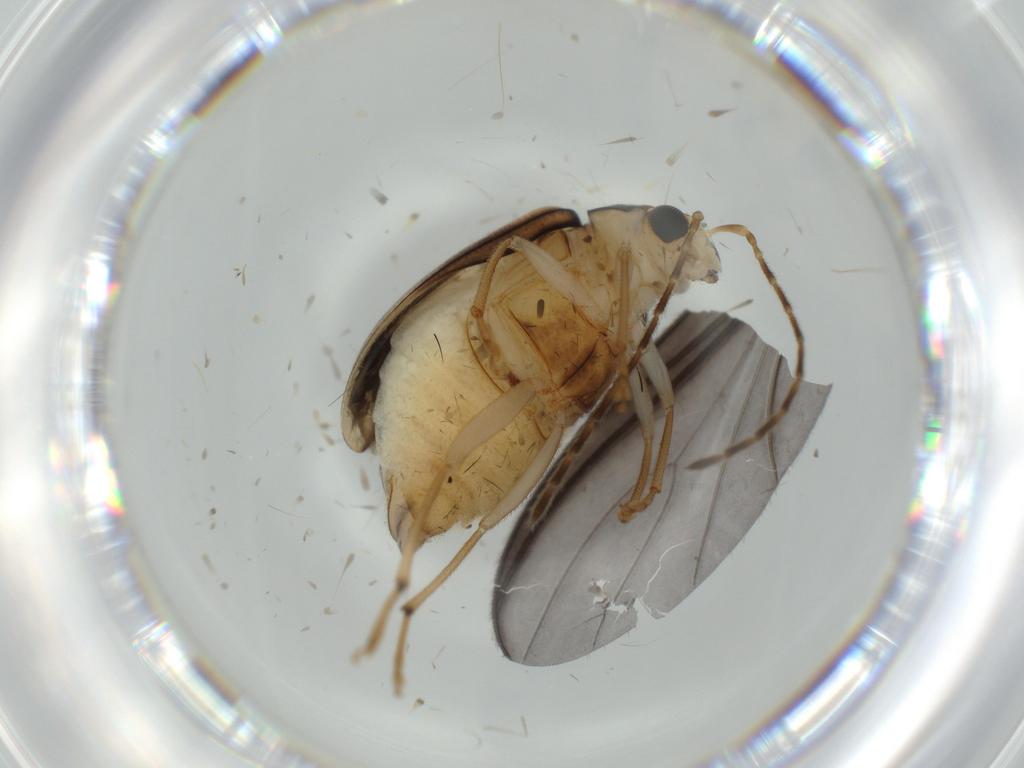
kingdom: Animalia
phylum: Arthropoda
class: Insecta
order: Coleoptera
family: Chrysomelidae
